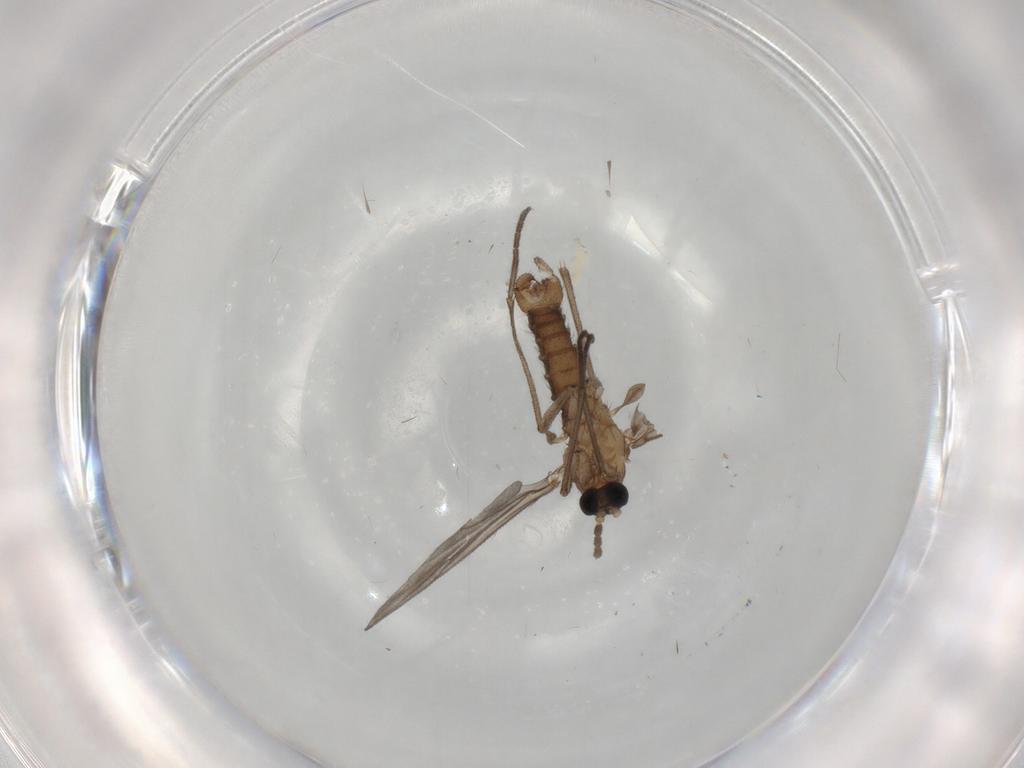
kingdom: Animalia
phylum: Arthropoda
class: Insecta
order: Diptera
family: Sciaridae
